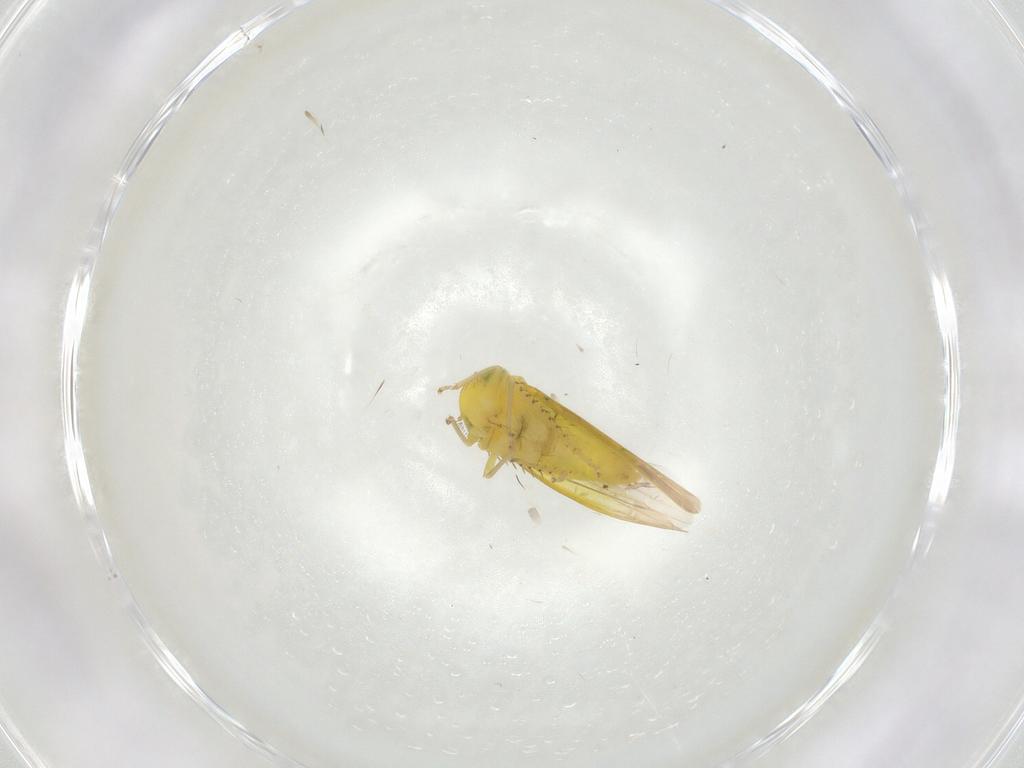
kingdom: Animalia
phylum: Arthropoda
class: Insecta
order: Hemiptera
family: Cicadellidae
